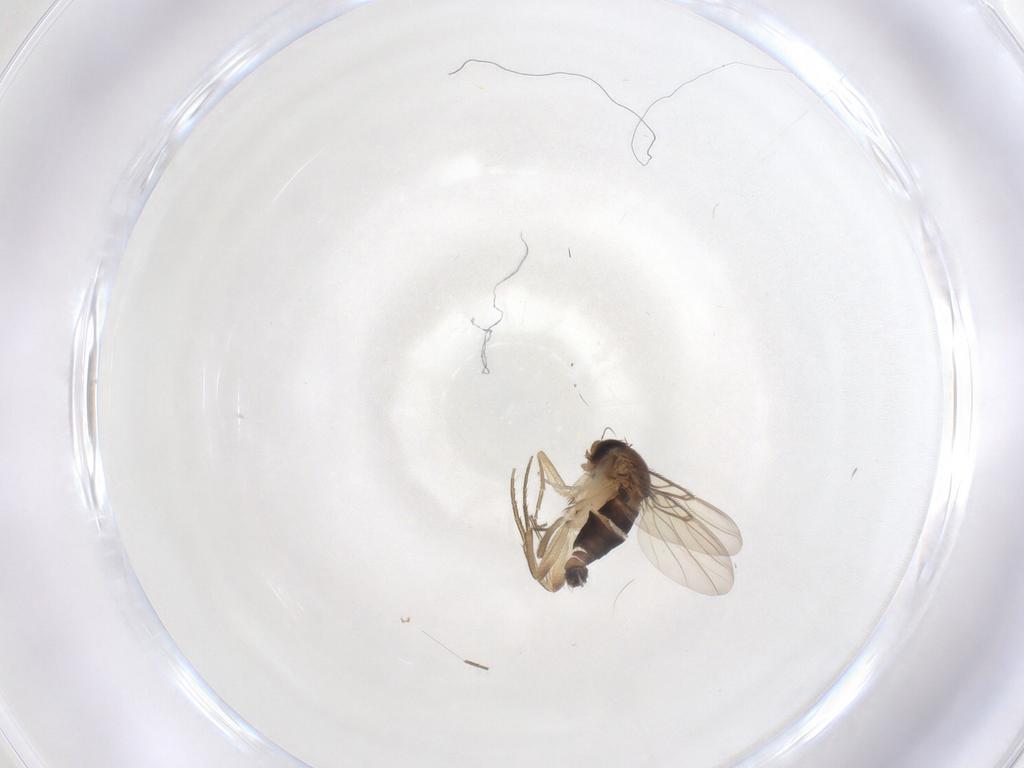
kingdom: Animalia
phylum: Arthropoda
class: Insecta
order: Diptera
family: Phoridae
